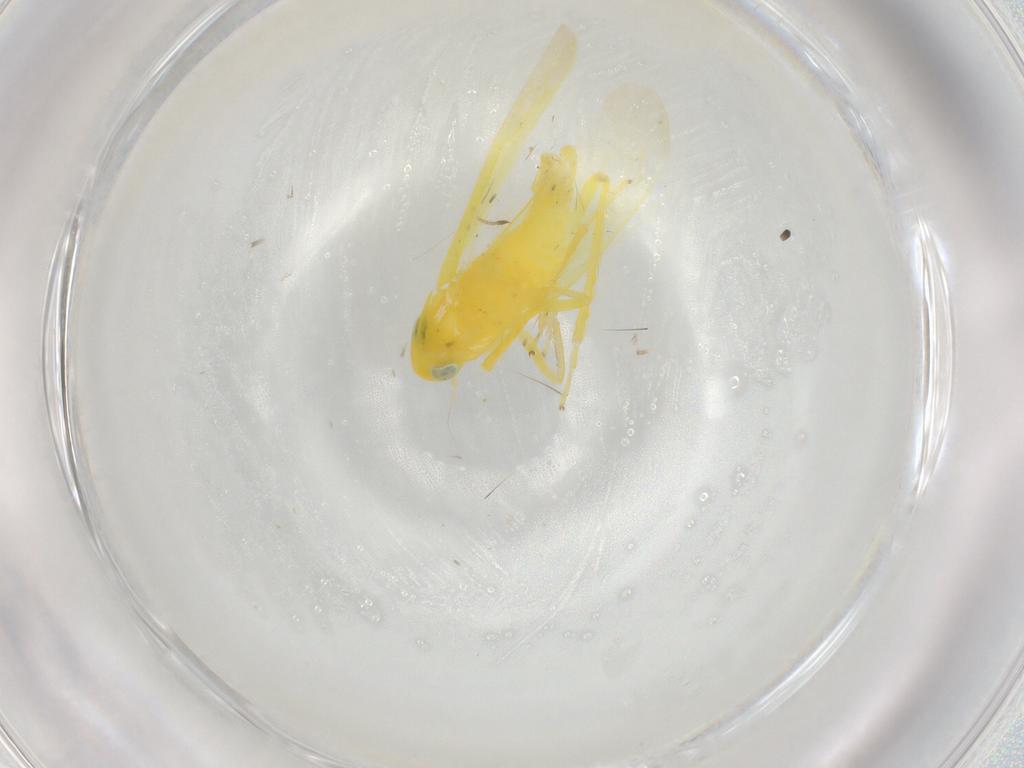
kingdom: Animalia
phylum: Arthropoda
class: Insecta
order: Hemiptera
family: Cicadellidae
